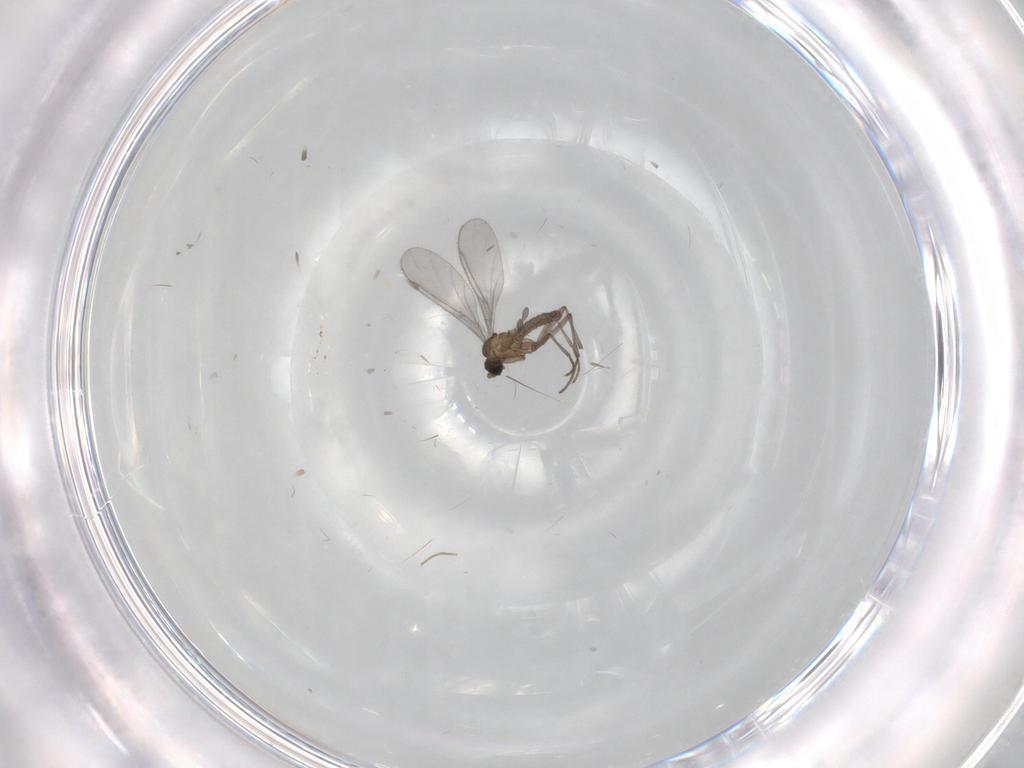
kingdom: Animalia
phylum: Arthropoda
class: Insecta
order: Diptera
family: Sciaridae
